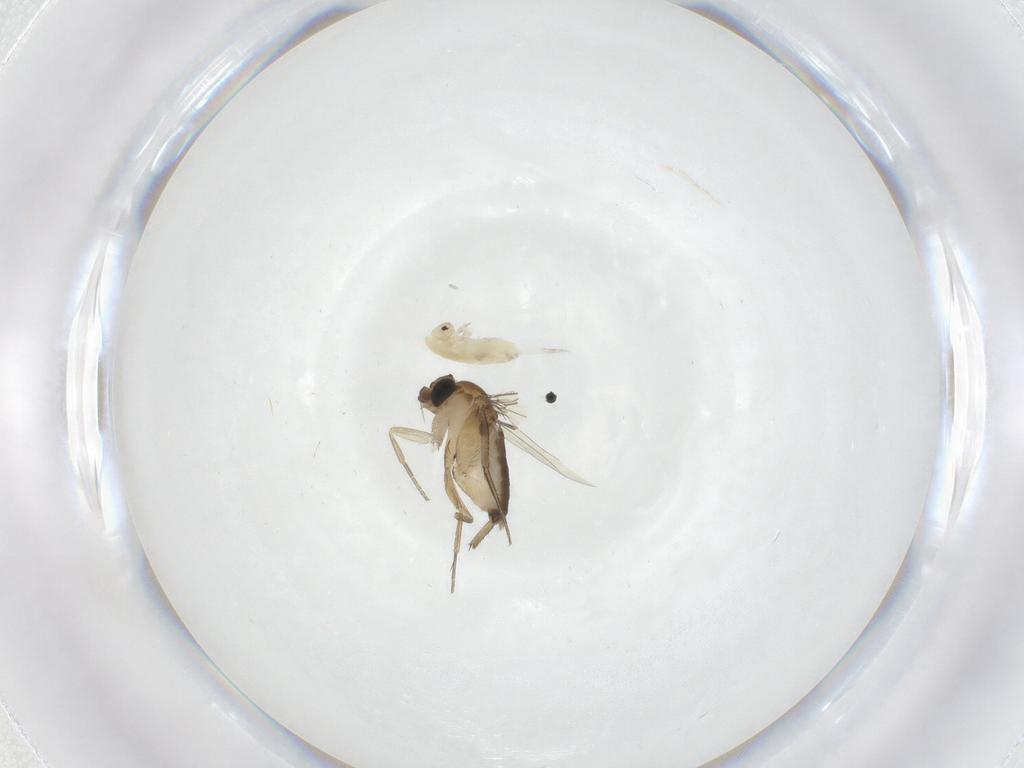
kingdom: Animalia
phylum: Arthropoda
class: Insecta
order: Diptera
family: Phoridae
